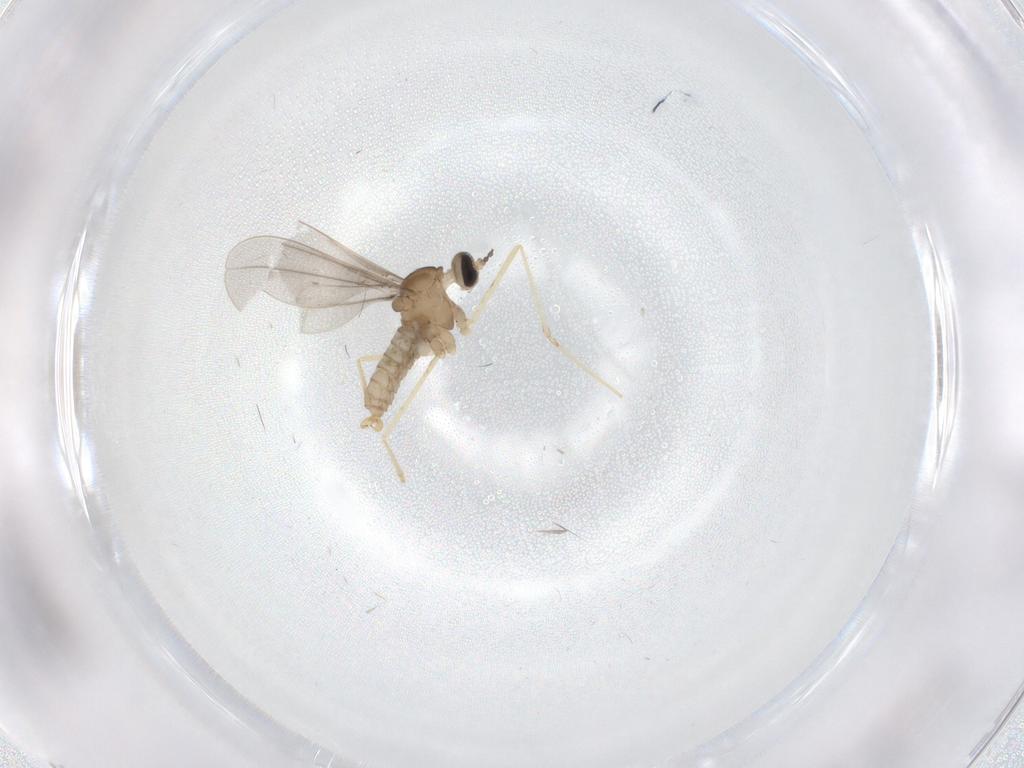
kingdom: Animalia
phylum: Arthropoda
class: Insecta
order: Diptera
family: Cecidomyiidae
